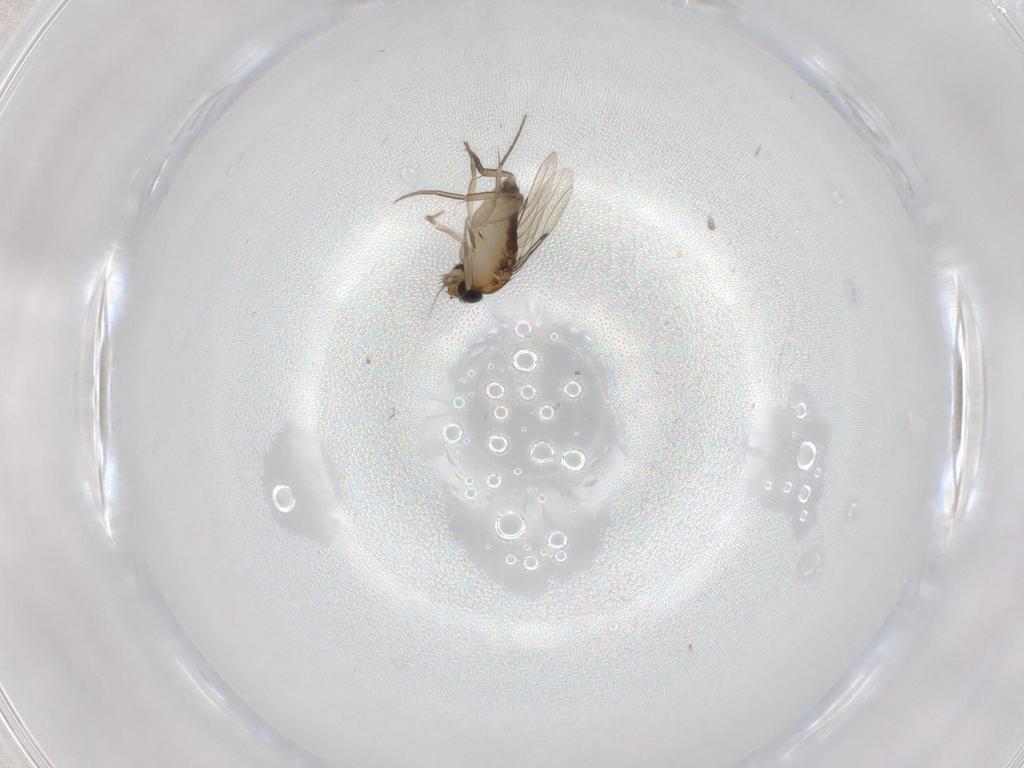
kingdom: Animalia
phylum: Arthropoda
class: Insecta
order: Diptera
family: Phoridae
